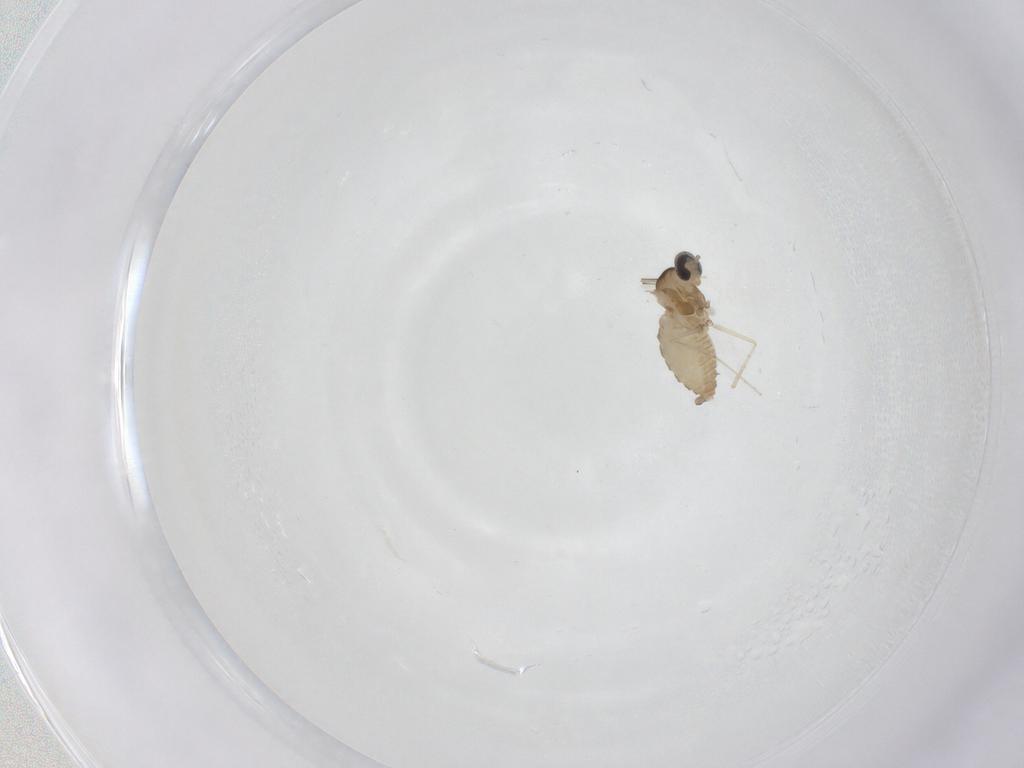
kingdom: Animalia
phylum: Arthropoda
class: Insecta
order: Diptera
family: Cecidomyiidae
